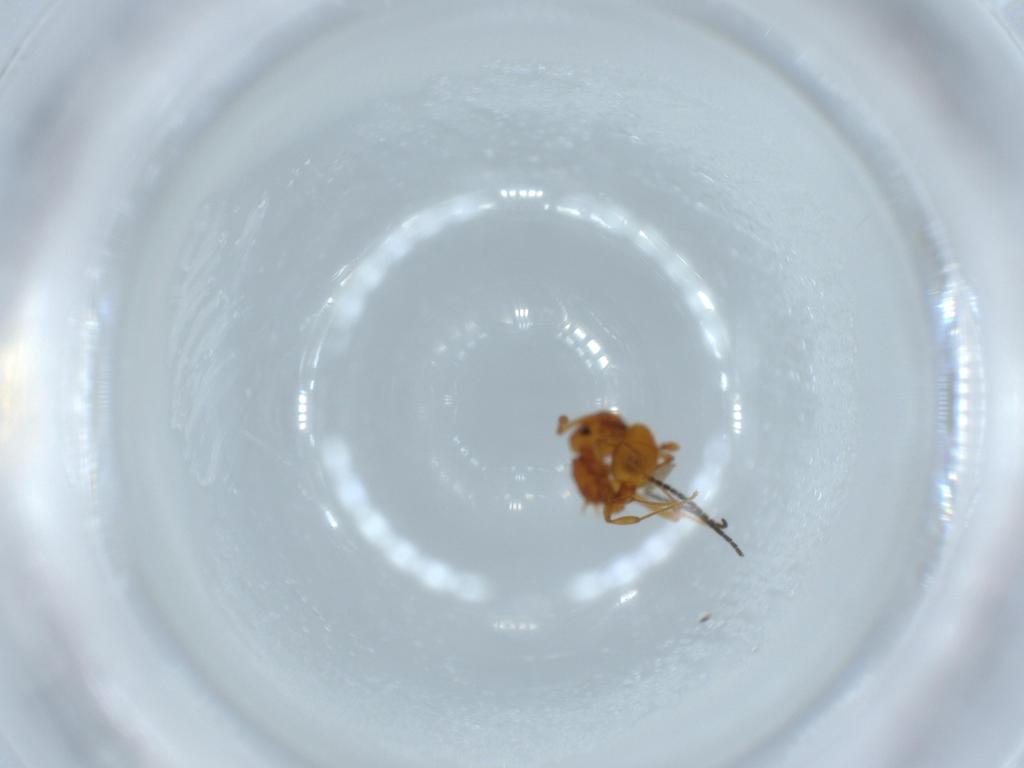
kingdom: Animalia
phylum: Arthropoda
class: Insecta
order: Hymenoptera
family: Formicidae
